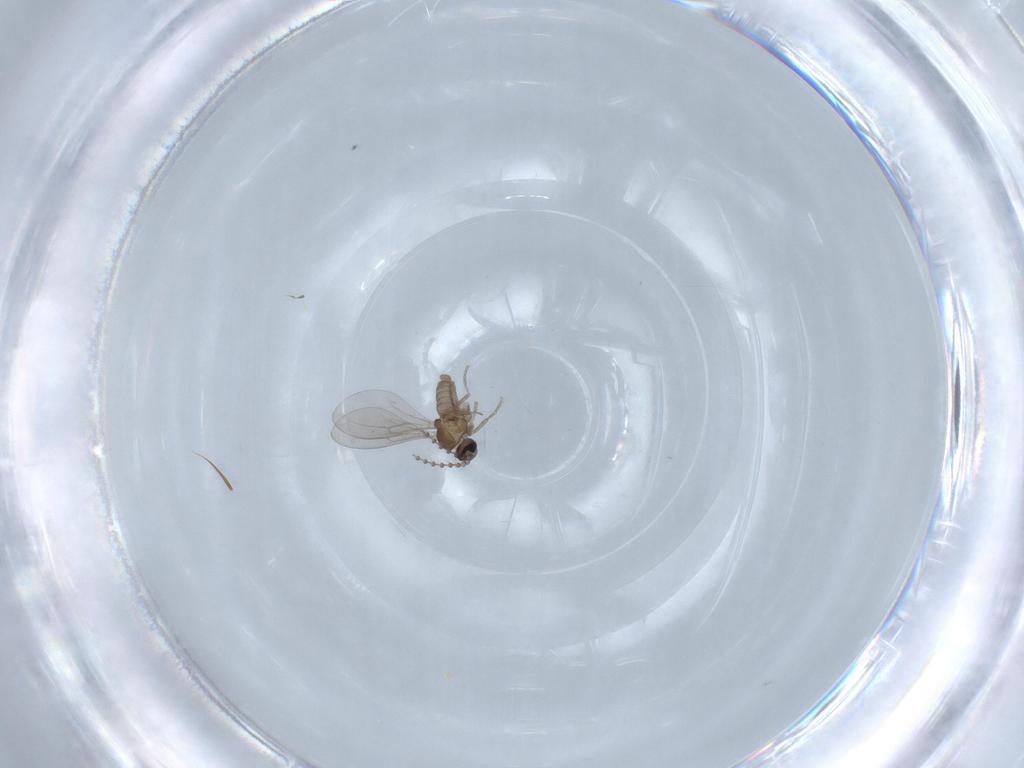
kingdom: Animalia
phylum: Arthropoda
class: Insecta
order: Diptera
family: Cecidomyiidae
